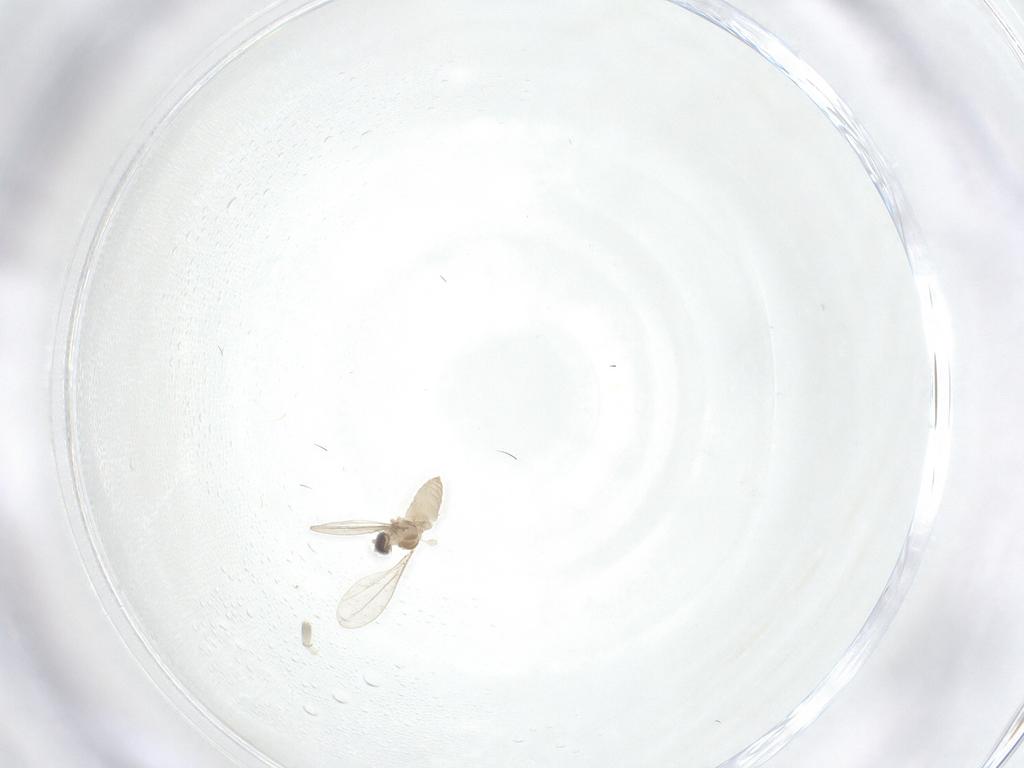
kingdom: Animalia
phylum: Arthropoda
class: Insecta
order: Diptera
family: Cecidomyiidae
